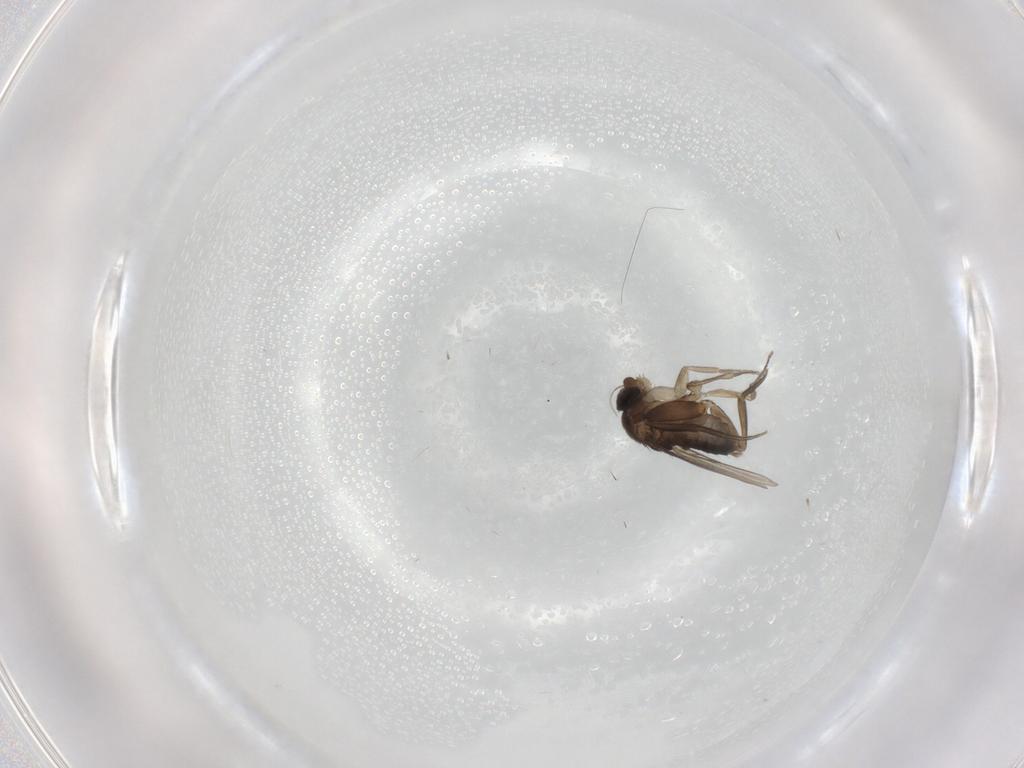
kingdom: Animalia
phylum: Arthropoda
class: Insecta
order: Diptera
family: Phoridae
